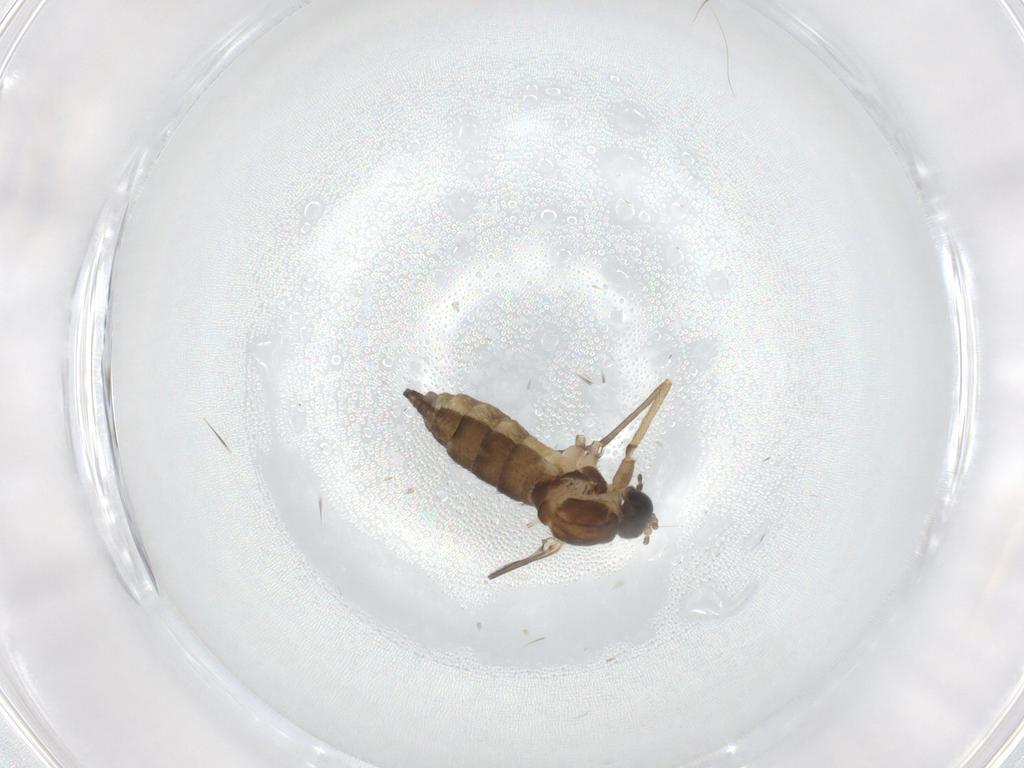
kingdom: Animalia
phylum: Arthropoda
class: Insecta
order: Diptera
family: Sciaridae
